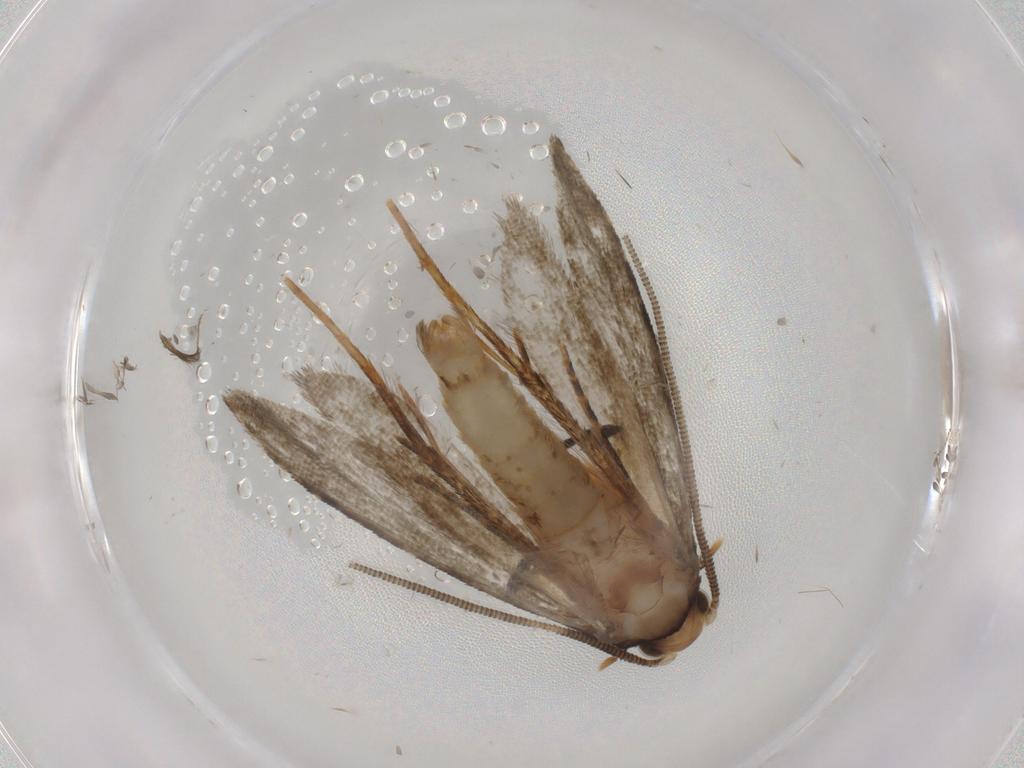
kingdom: Animalia
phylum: Arthropoda
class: Insecta
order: Lepidoptera
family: Tineidae
